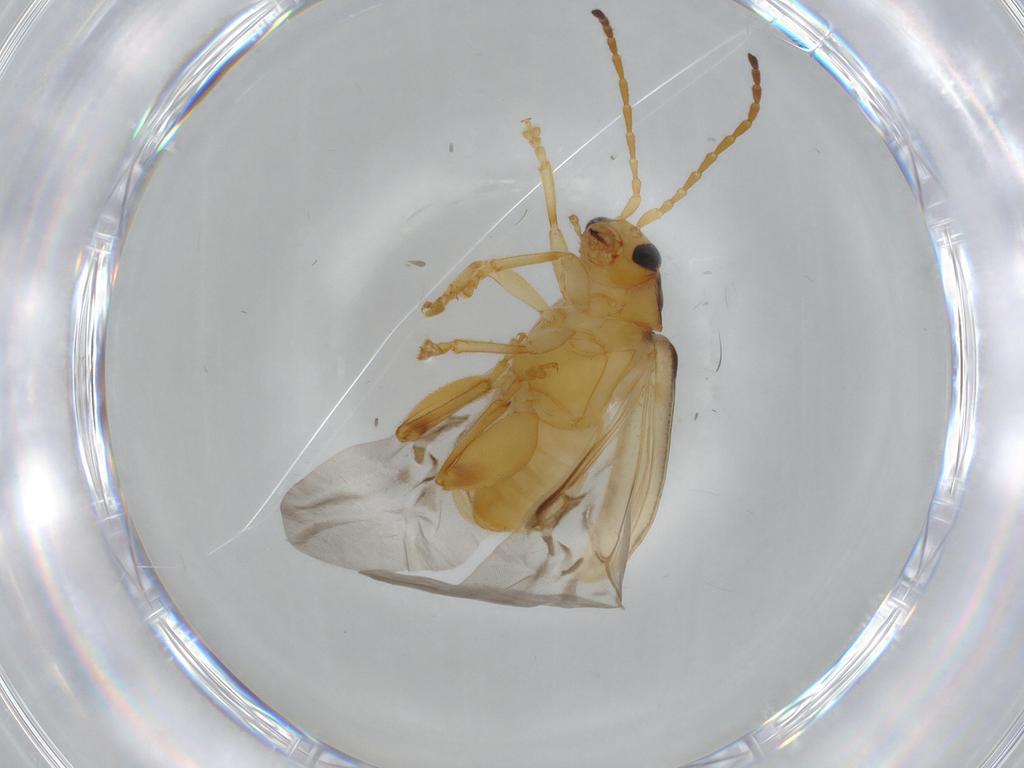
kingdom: Animalia
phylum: Arthropoda
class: Insecta
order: Coleoptera
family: Chrysomelidae
